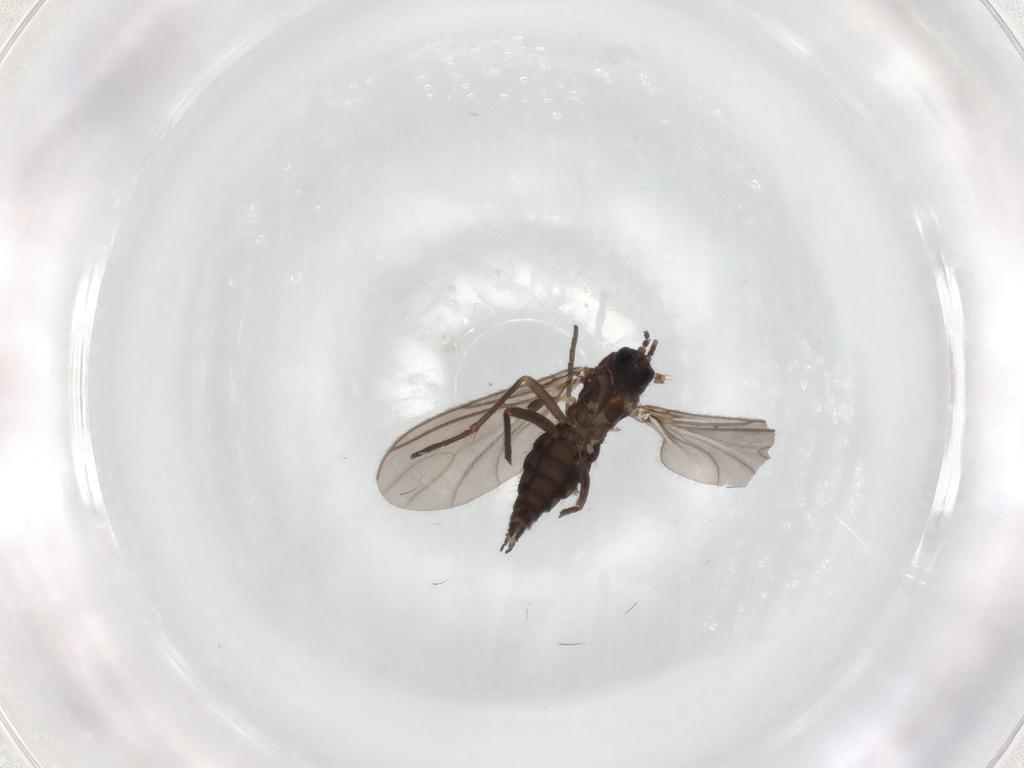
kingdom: Animalia
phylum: Arthropoda
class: Insecta
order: Diptera
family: Sciaridae
